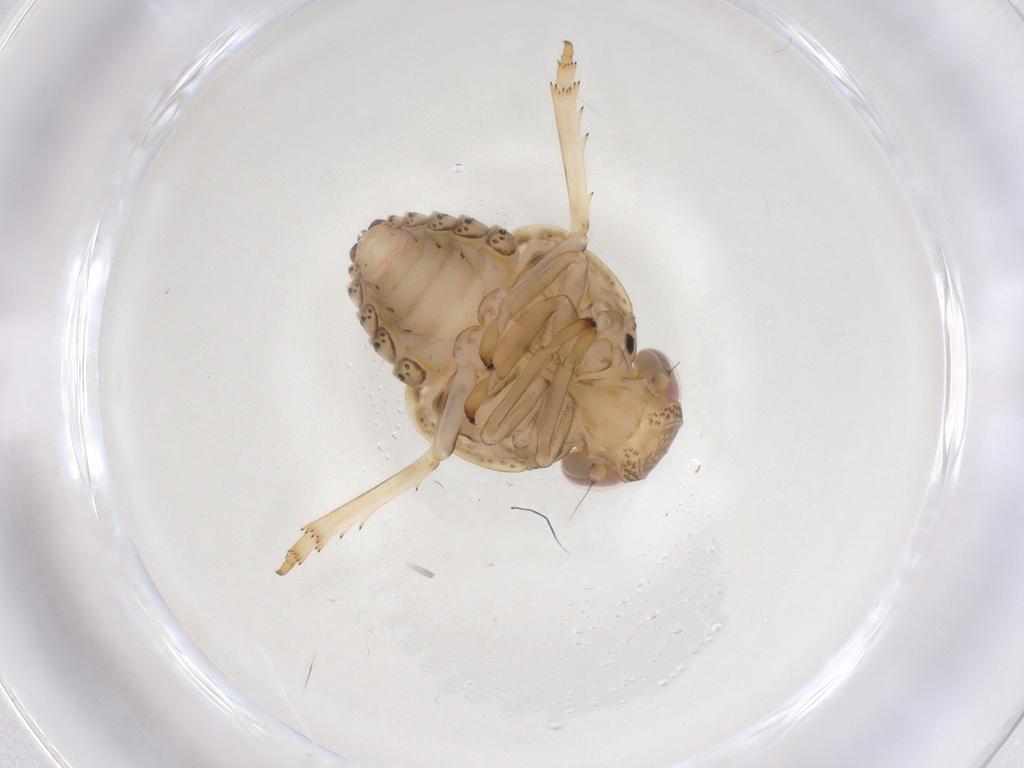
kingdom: Animalia
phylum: Arthropoda
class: Insecta
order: Hemiptera
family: Issidae
